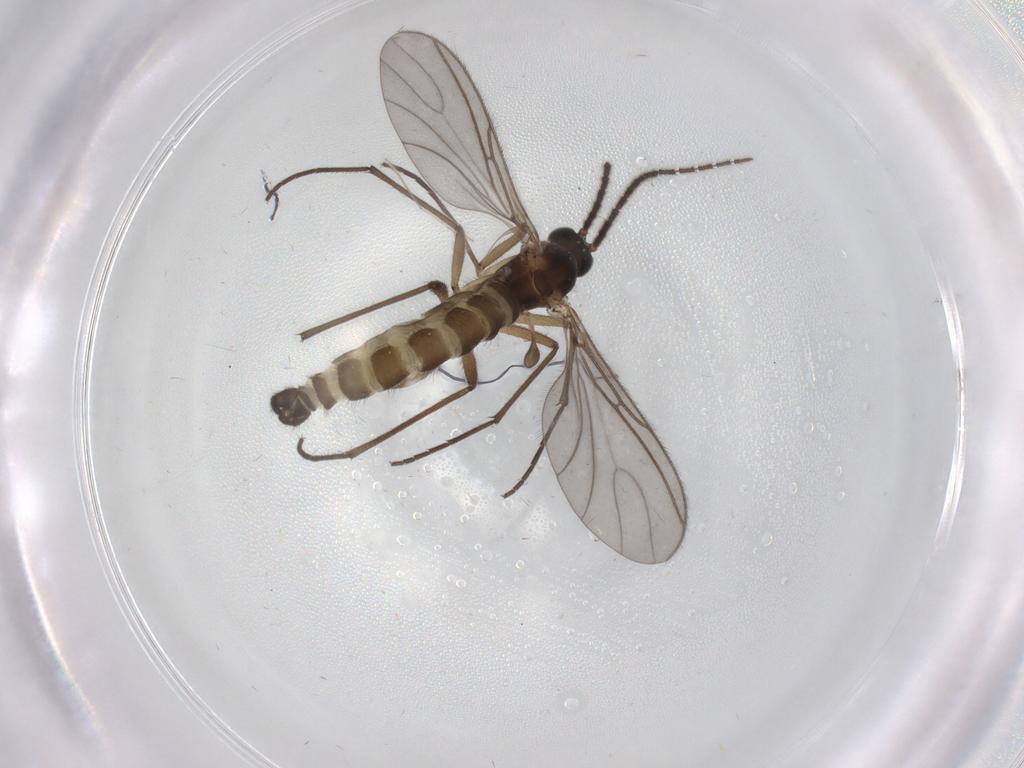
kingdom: Animalia
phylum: Arthropoda
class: Insecta
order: Diptera
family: Sciaridae
